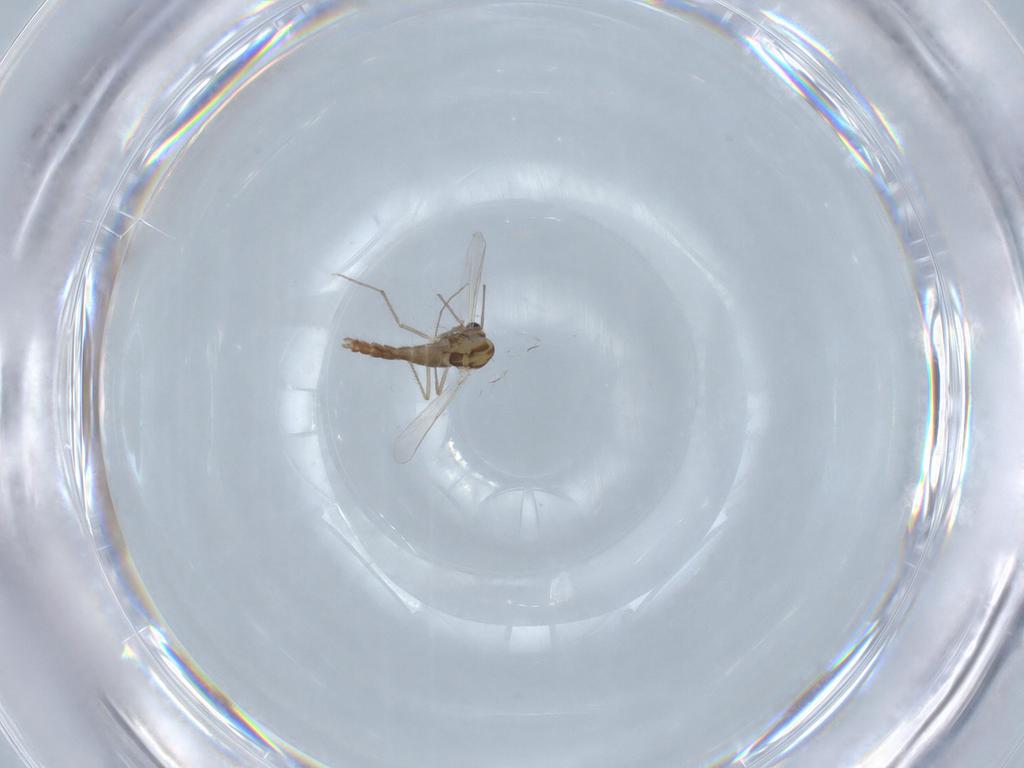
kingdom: Animalia
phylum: Arthropoda
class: Insecta
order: Diptera
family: Chironomidae
